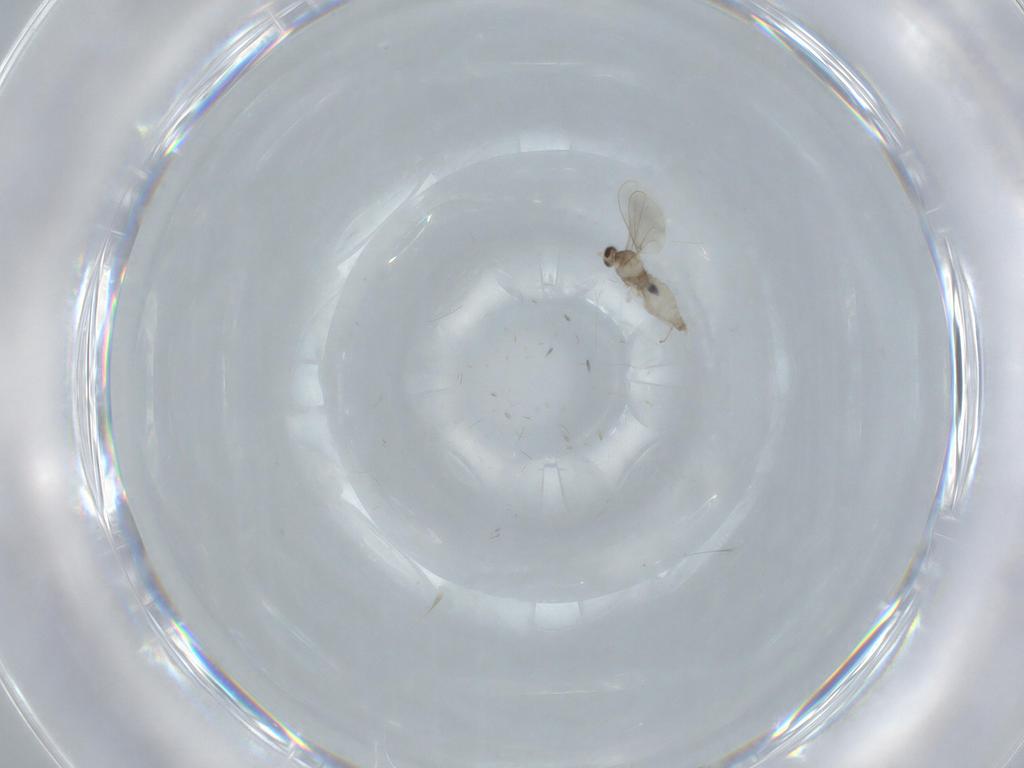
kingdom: Animalia
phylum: Arthropoda
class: Insecta
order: Diptera
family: Phoridae
